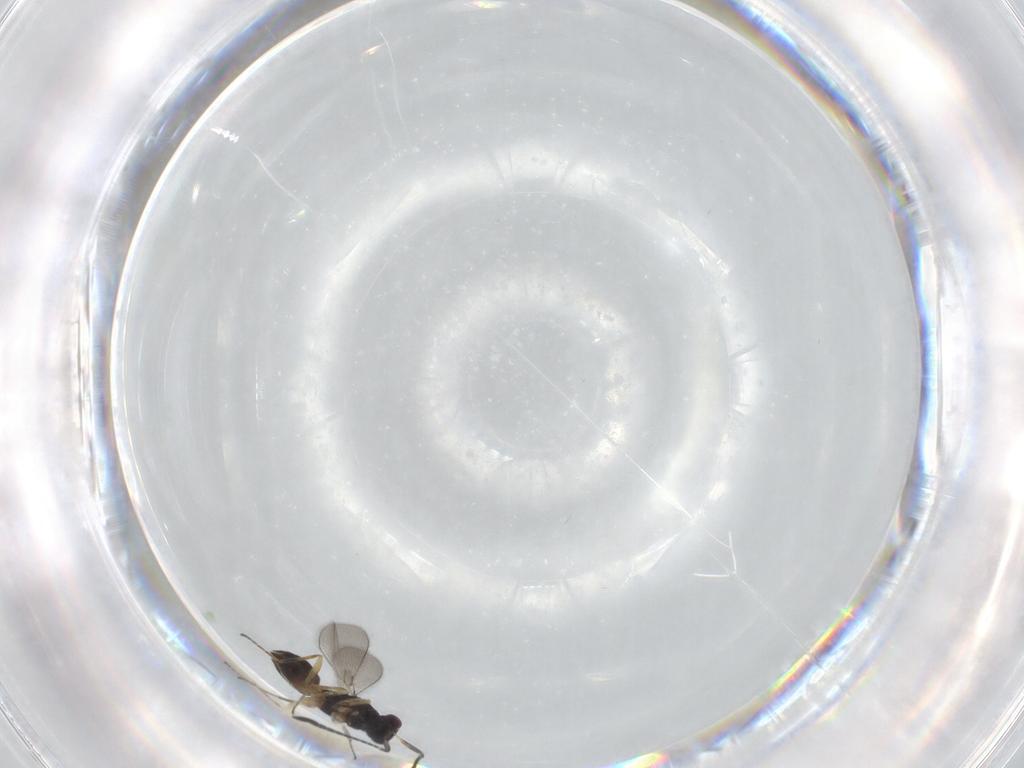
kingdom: Animalia
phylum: Arthropoda
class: Insecta
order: Hymenoptera
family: Mymaridae
